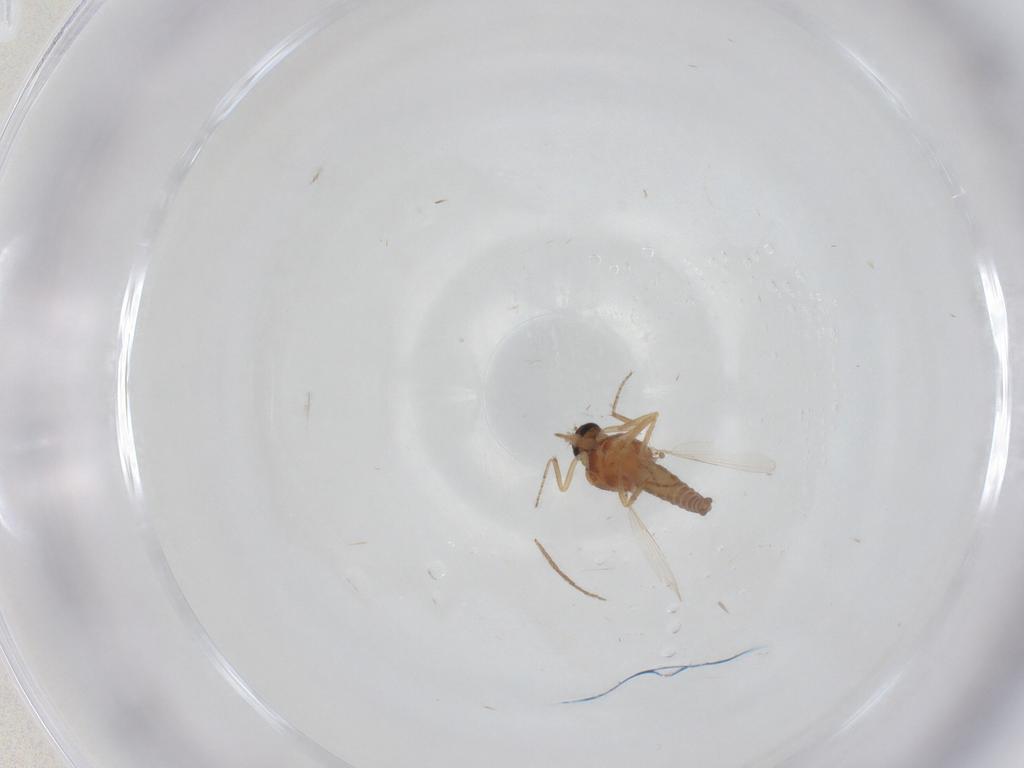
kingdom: Animalia
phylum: Arthropoda
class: Insecta
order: Diptera
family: Ceratopogonidae
